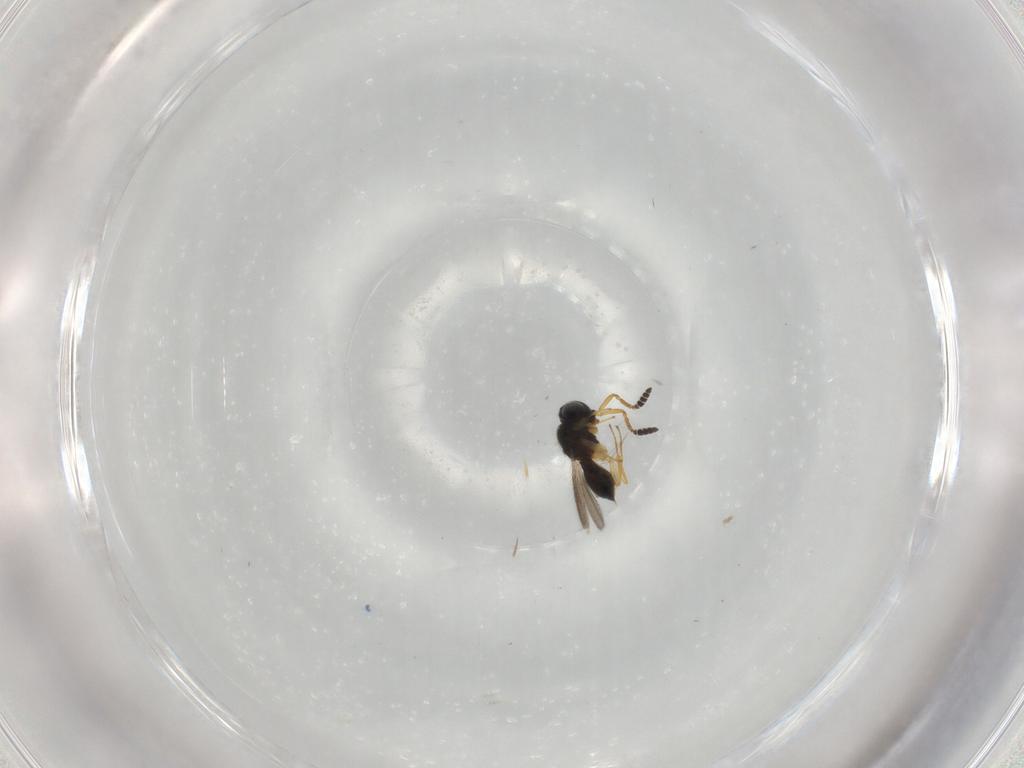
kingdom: Animalia
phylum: Arthropoda
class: Insecta
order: Hymenoptera
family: Scelionidae
